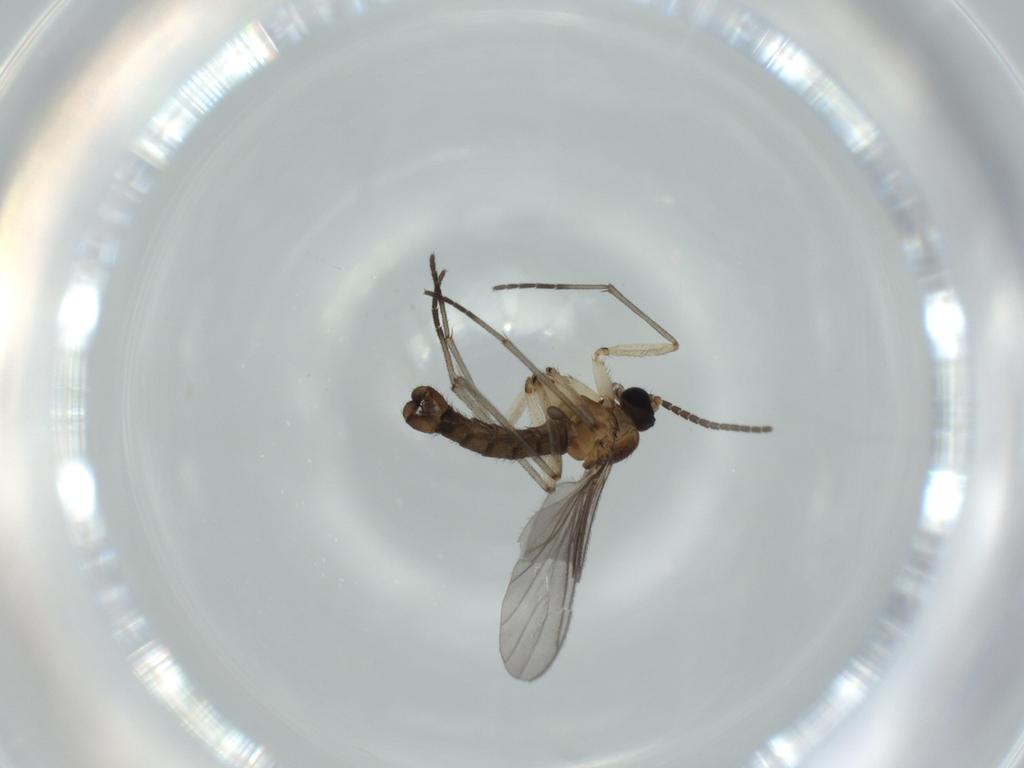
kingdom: Animalia
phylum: Arthropoda
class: Insecta
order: Diptera
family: Sciaridae
